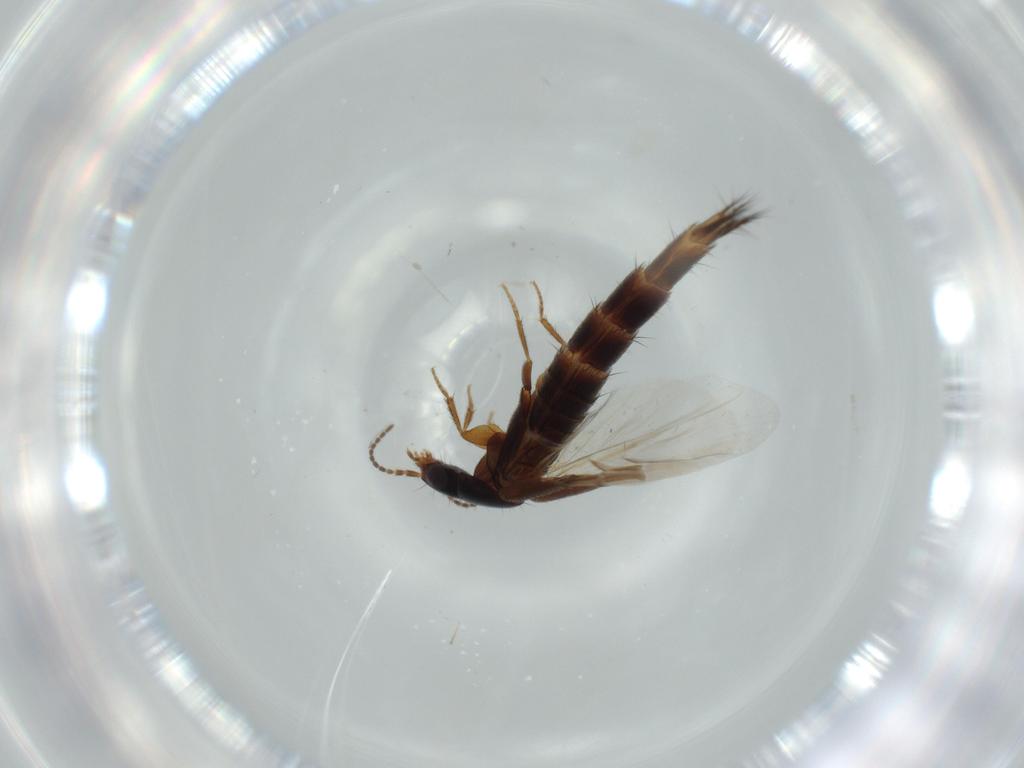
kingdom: Animalia
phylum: Arthropoda
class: Insecta
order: Coleoptera
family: Staphylinidae
